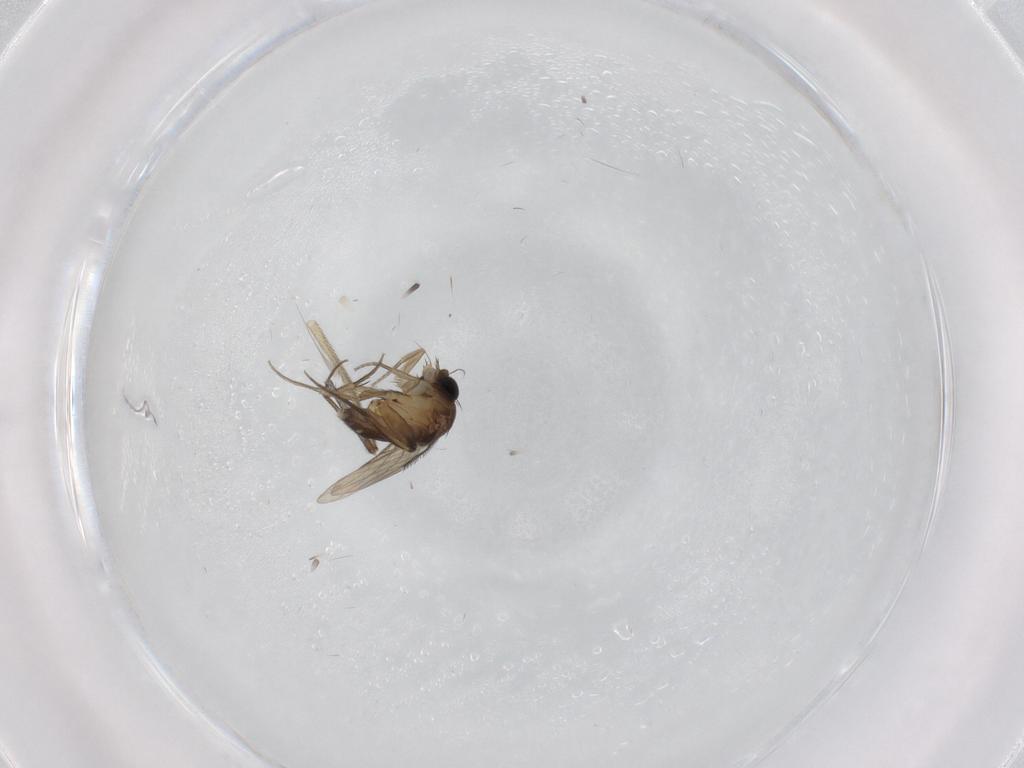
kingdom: Animalia
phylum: Arthropoda
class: Insecta
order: Diptera
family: Phoridae
